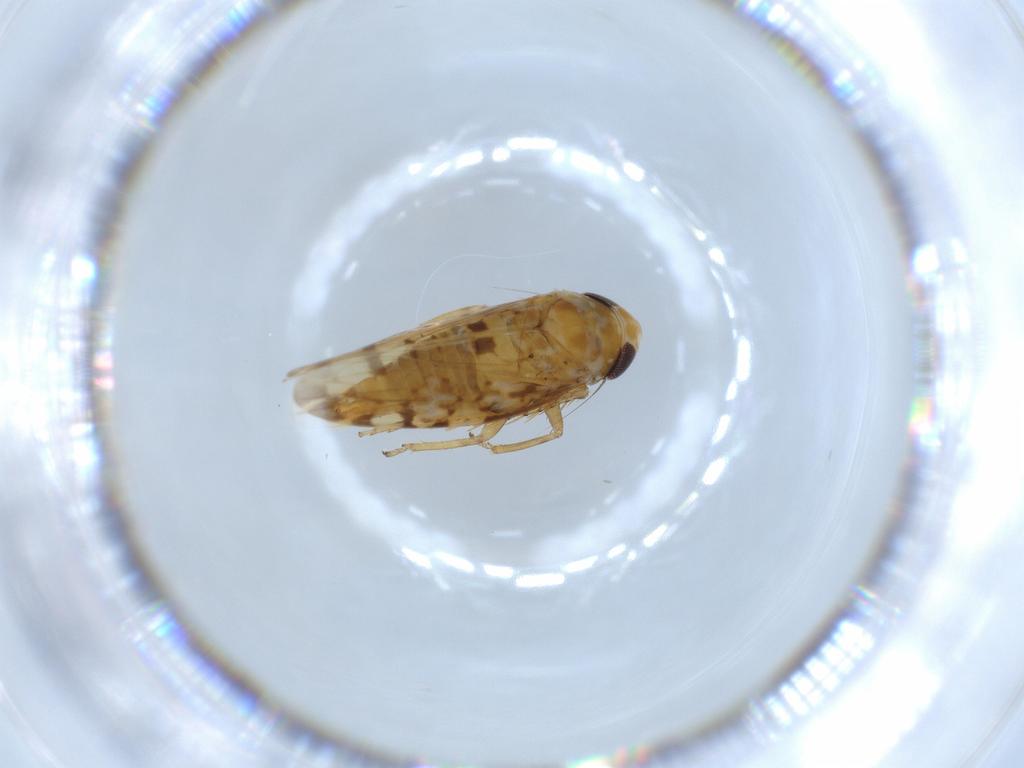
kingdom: Animalia
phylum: Arthropoda
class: Insecta
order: Hemiptera
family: Cicadellidae
